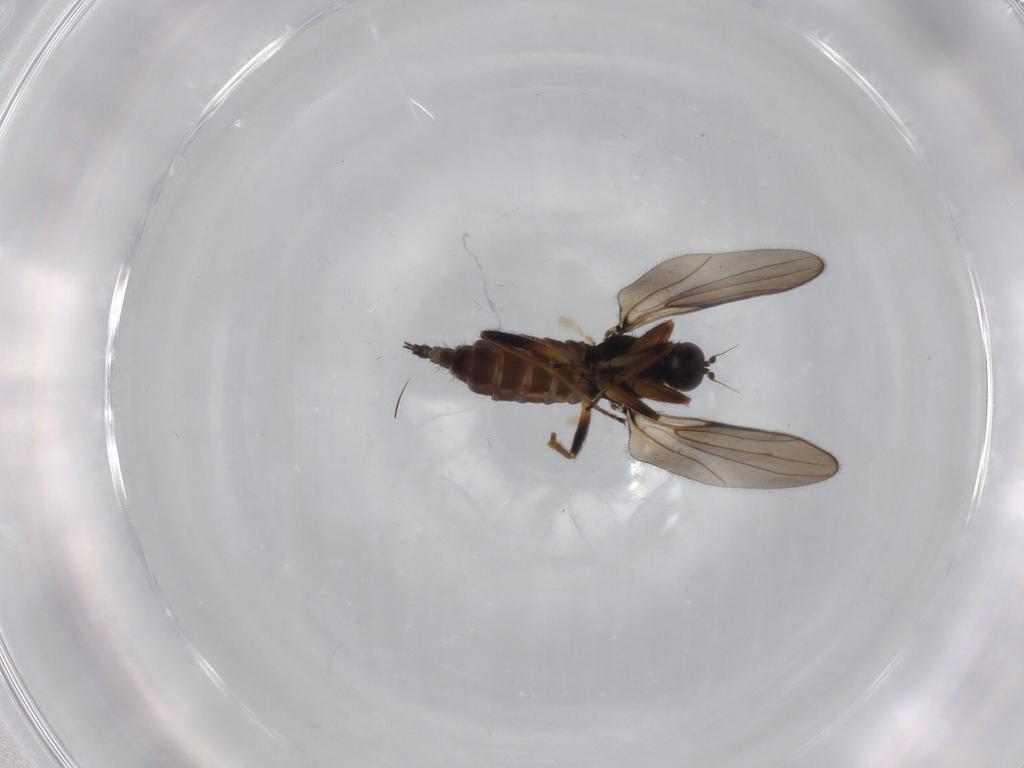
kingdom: Animalia
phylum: Arthropoda
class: Insecta
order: Diptera
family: Hybotidae
